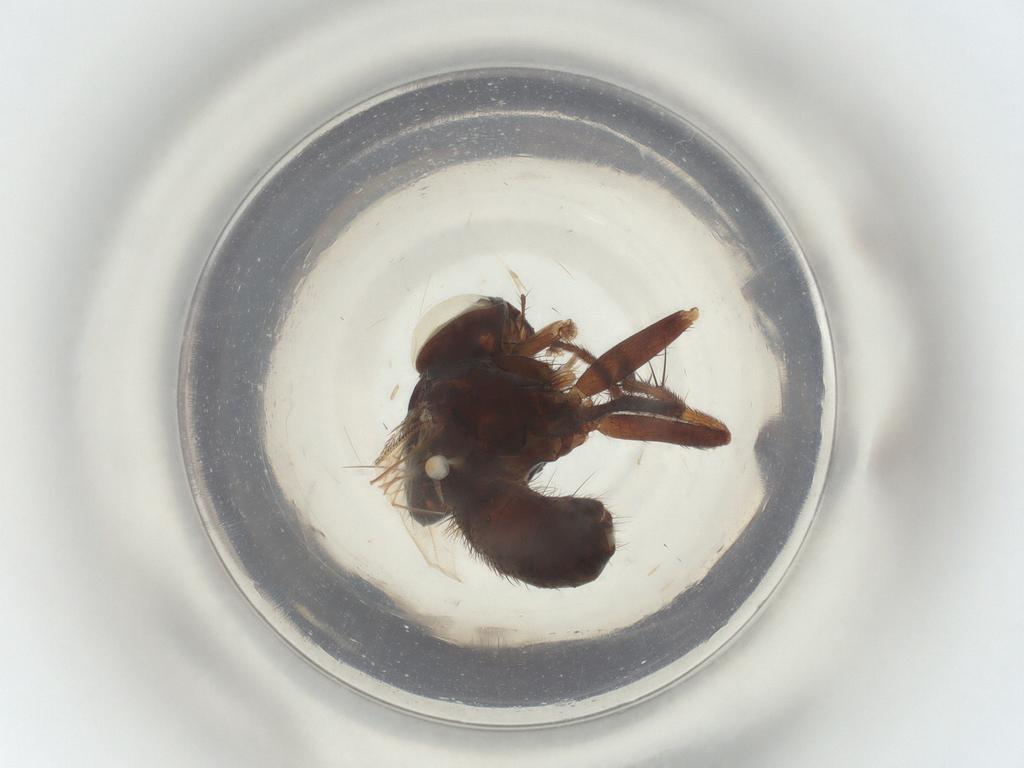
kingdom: Animalia
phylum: Arthropoda
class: Insecta
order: Diptera
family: Muscidae
